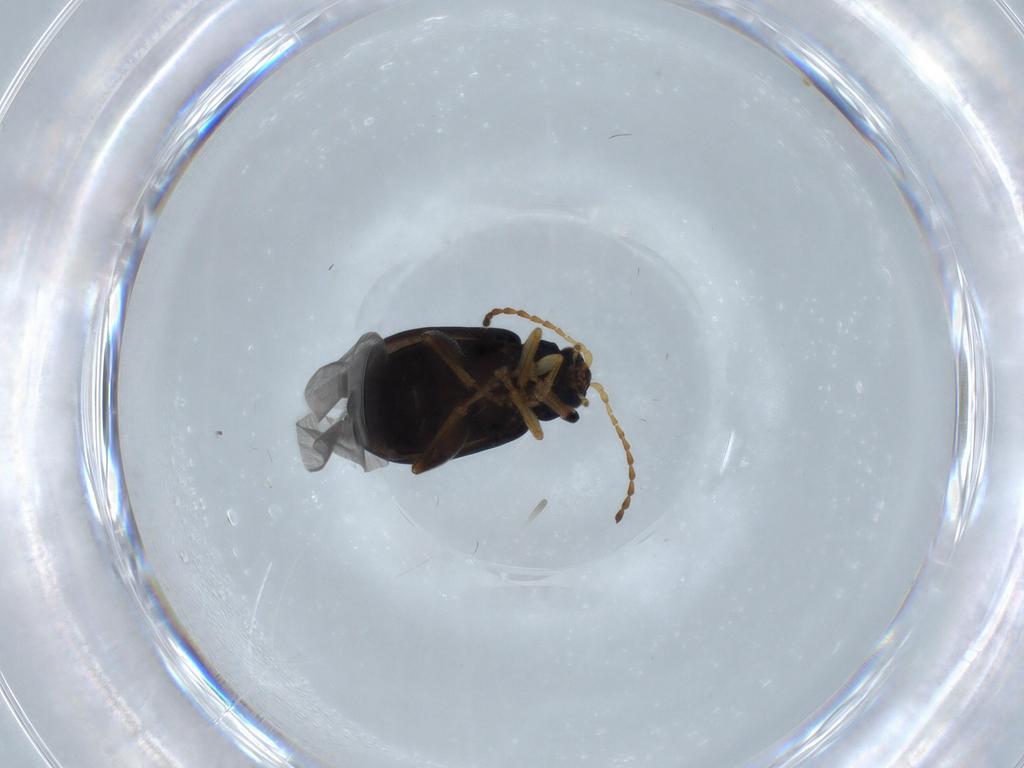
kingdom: Animalia
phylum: Arthropoda
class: Insecta
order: Coleoptera
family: Chrysomelidae
